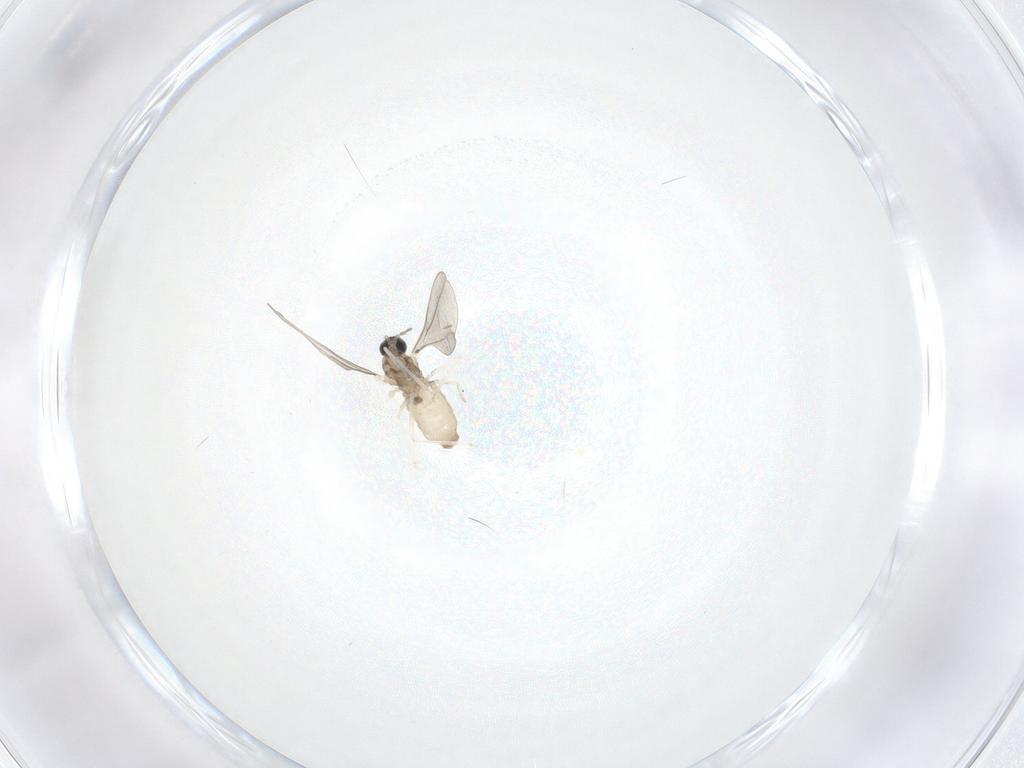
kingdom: Animalia
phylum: Arthropoda
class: Insecta
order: Diptera
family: Cecidomyiidae
